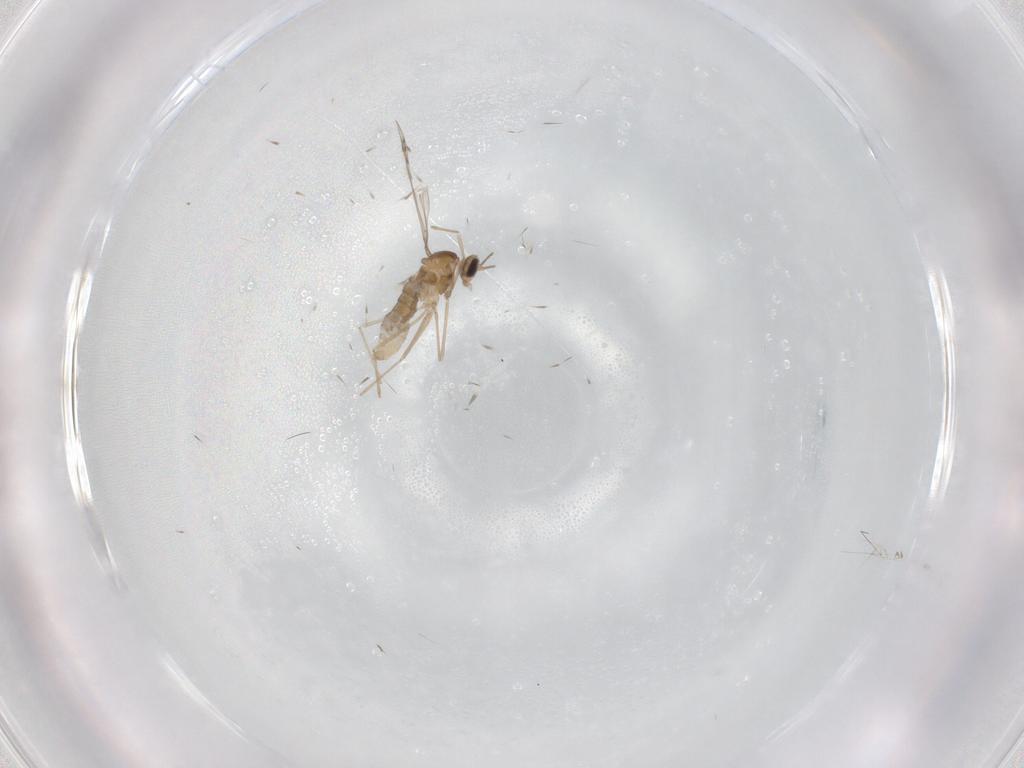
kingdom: Animalia
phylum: Arthropoda
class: Insecta
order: Diptera
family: Cecidomyiidae
